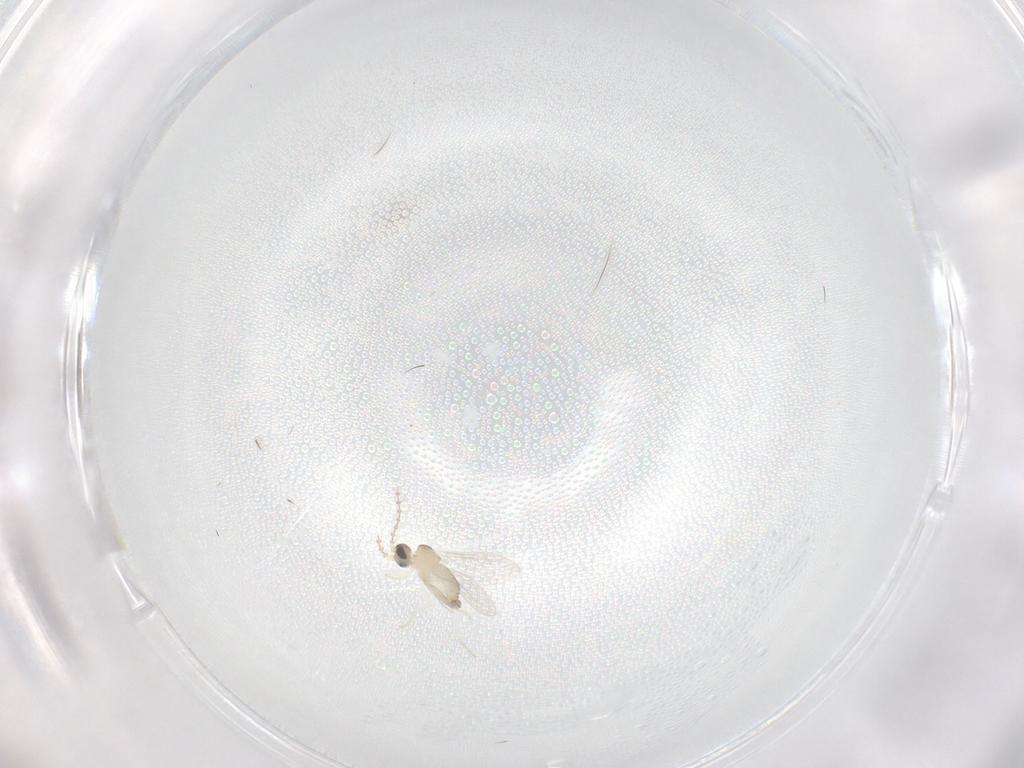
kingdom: Animalia
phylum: Arthropoda
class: Insecta
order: Diptera
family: Cecidomyiidae
